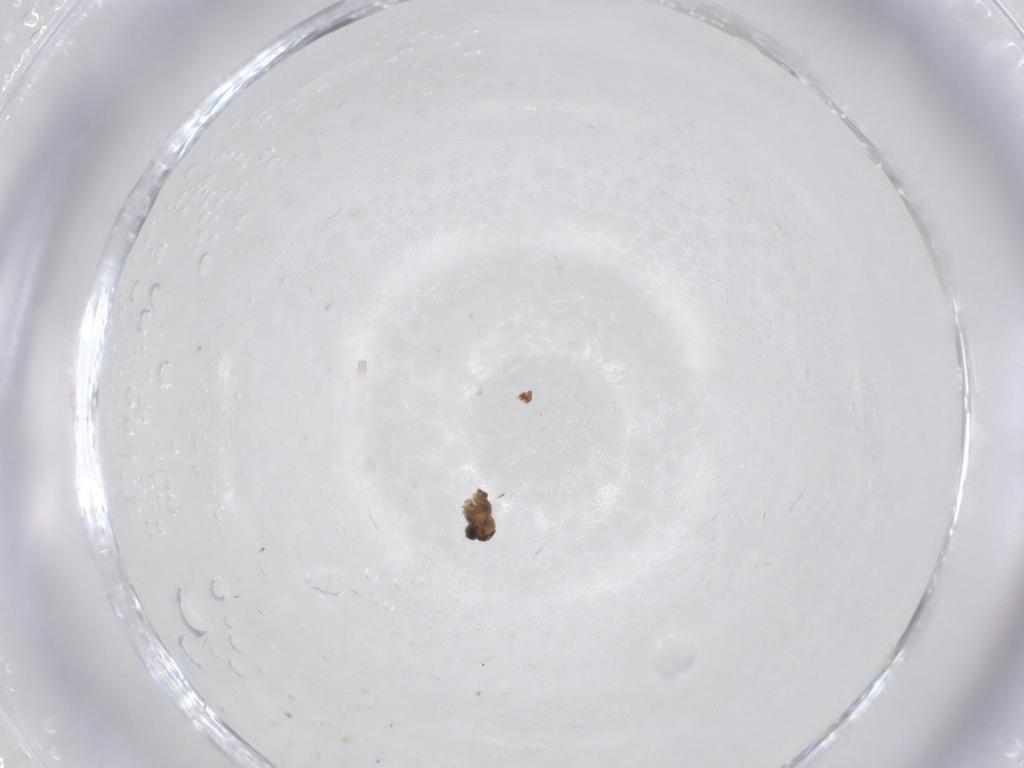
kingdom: Animalia
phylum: Arthropoda
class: Insecta
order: Diptera
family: Cecidomyiidae
